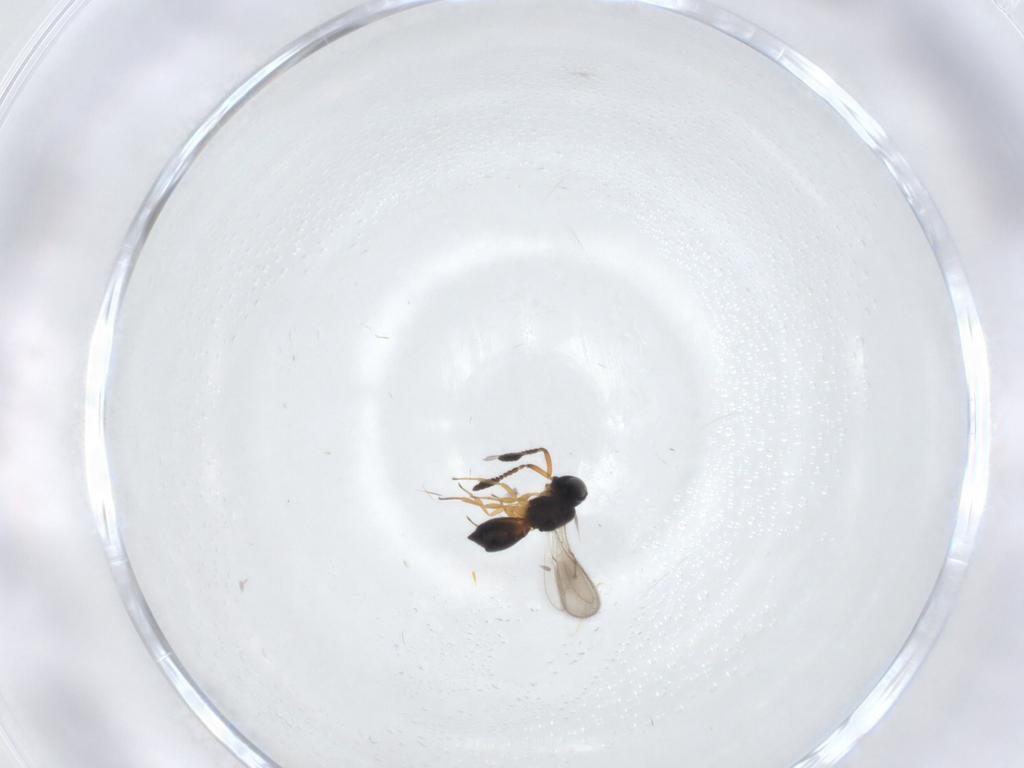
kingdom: Animalia
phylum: Arthropoda
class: Insecta
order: Hymenoptera
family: Scelionidae
